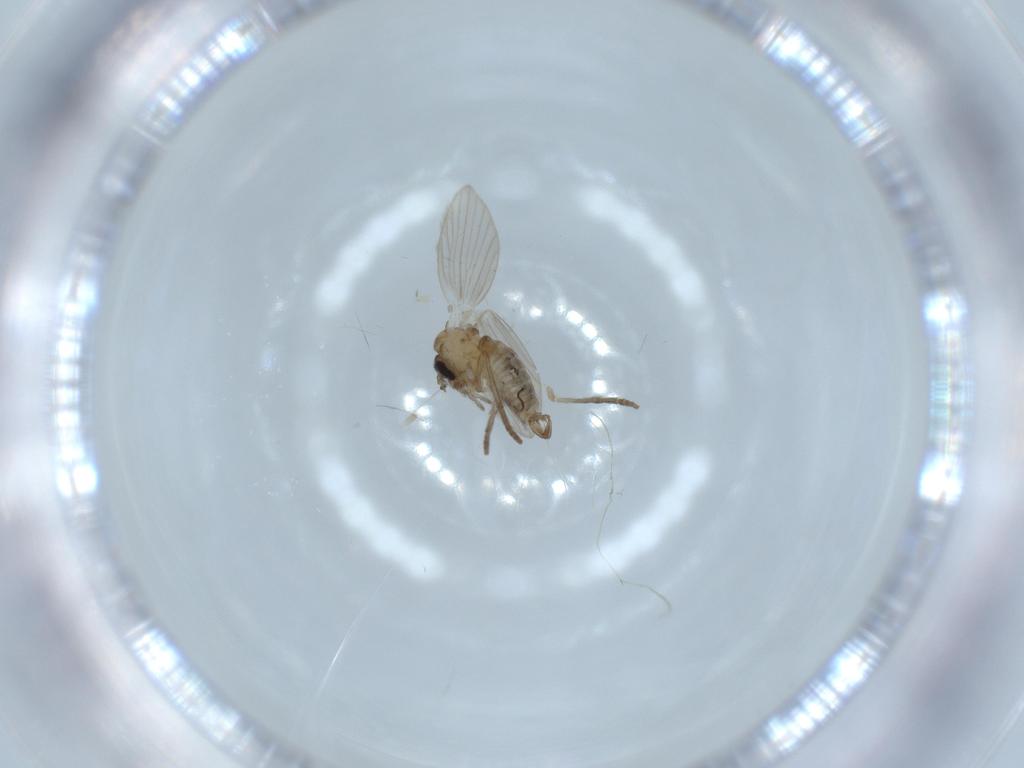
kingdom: Animalia
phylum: Arthropoda
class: Insecta
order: Diptera
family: Psychodidae
